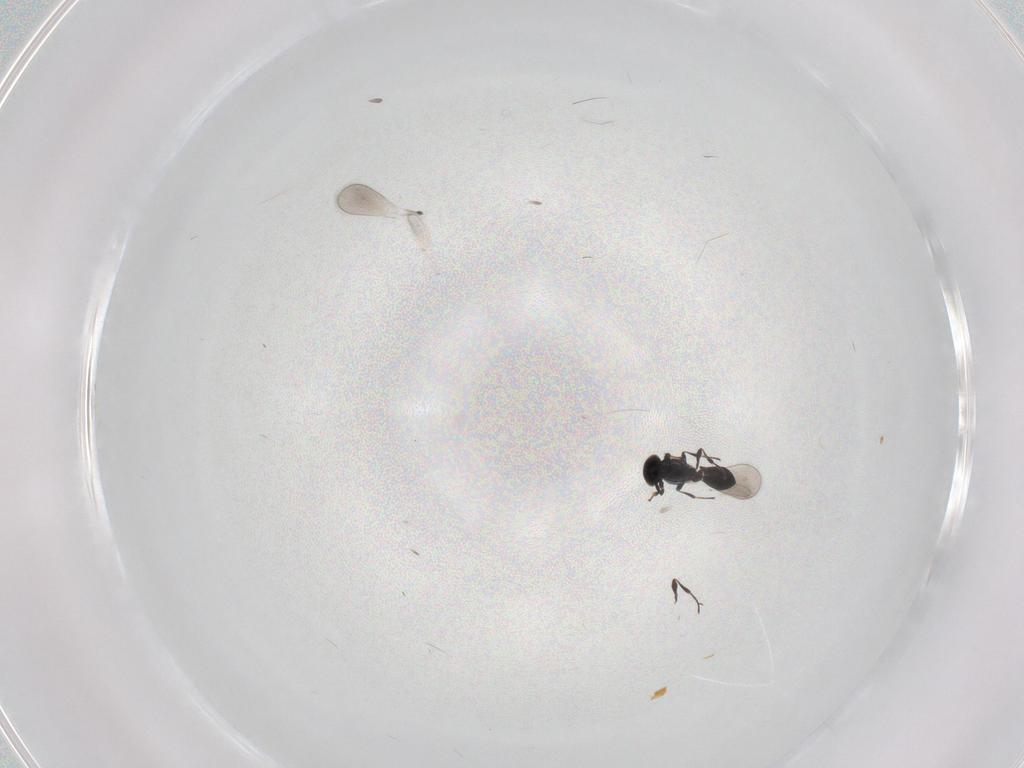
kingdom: Animalia
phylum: Arthropoda
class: Insecta
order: Hymenoptera
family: Platygastridae
